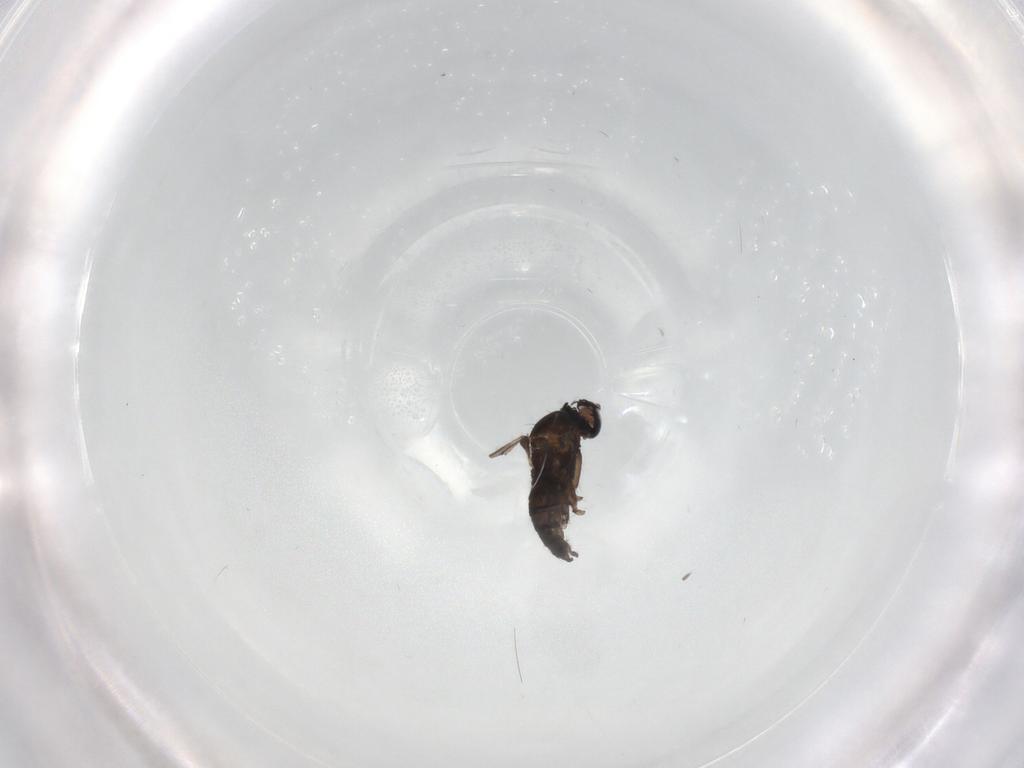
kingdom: Animalia
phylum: Arthropoda
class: Insecta
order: Diptera
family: Sciaridae
